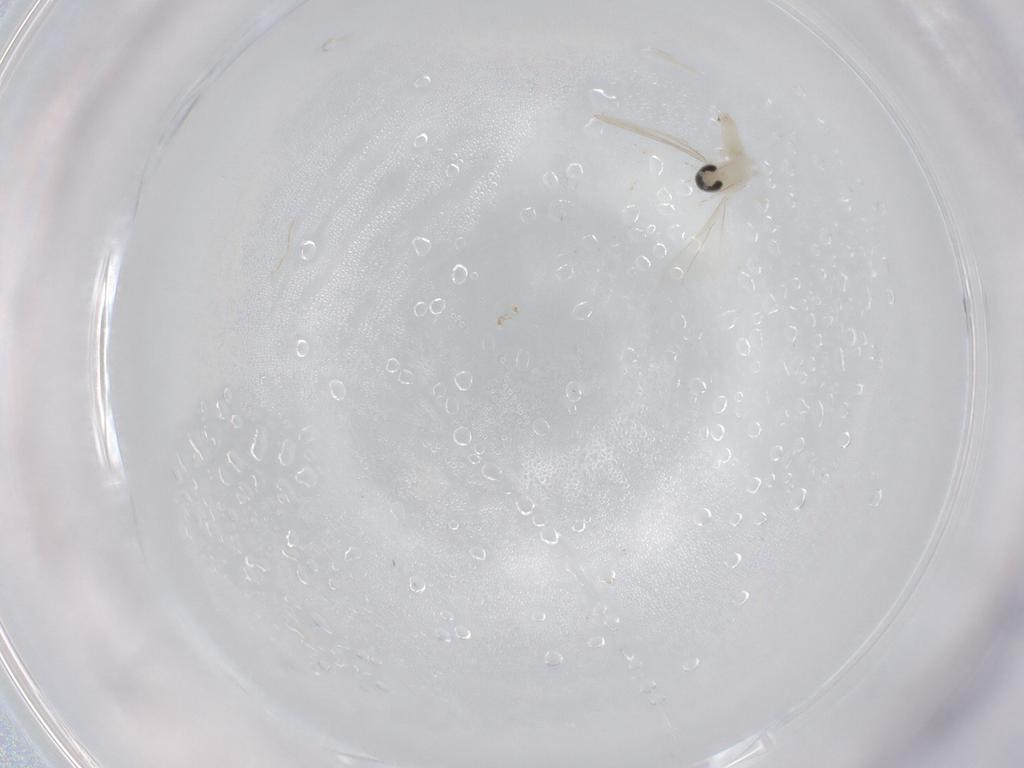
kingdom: Animalia
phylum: Arthropoda
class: Insecta
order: Diptera
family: Cecidomyiidae
